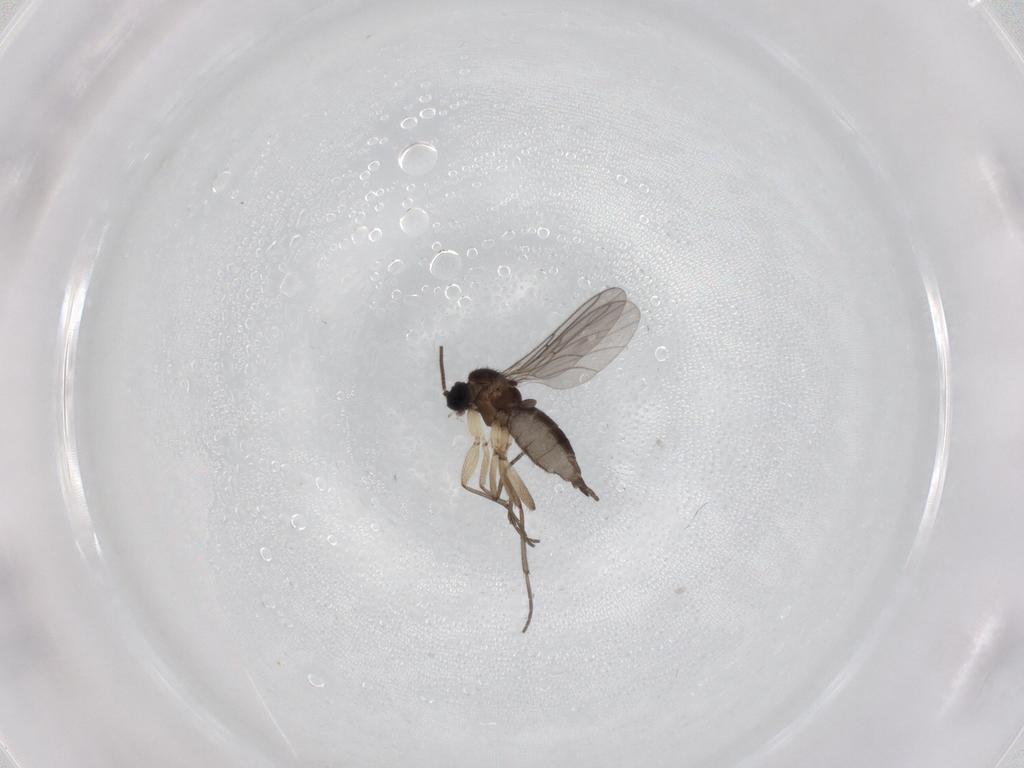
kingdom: Animalia
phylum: Arthropoda
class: Insecta
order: Diptera
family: Sciaridae
